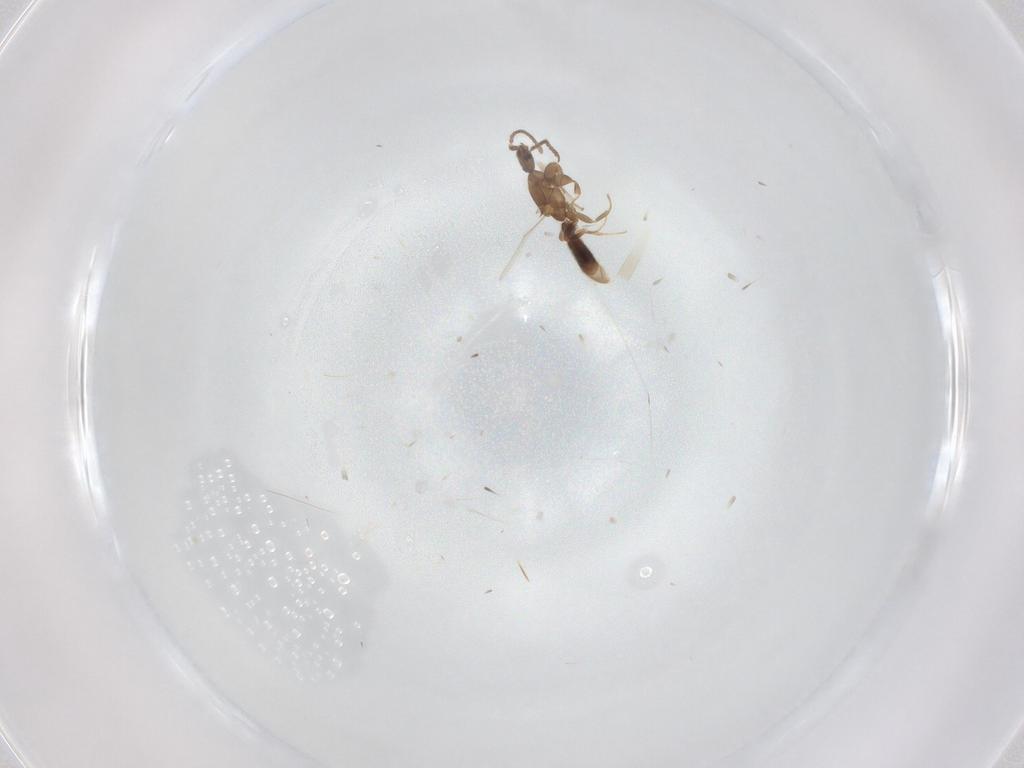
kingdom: Animalia
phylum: Arthropoda
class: Insecta
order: Hymenoptera
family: Formicidae
